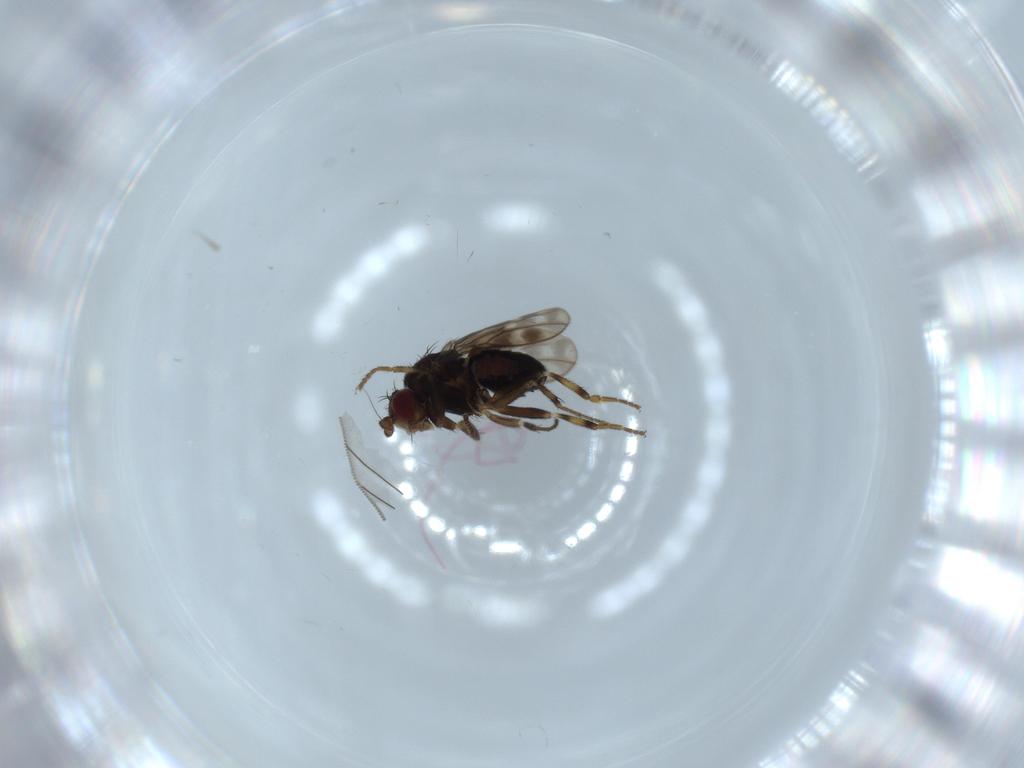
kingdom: Animalia
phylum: Arthropoda
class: Insecta
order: Diptera
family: Sphaeroceridae
